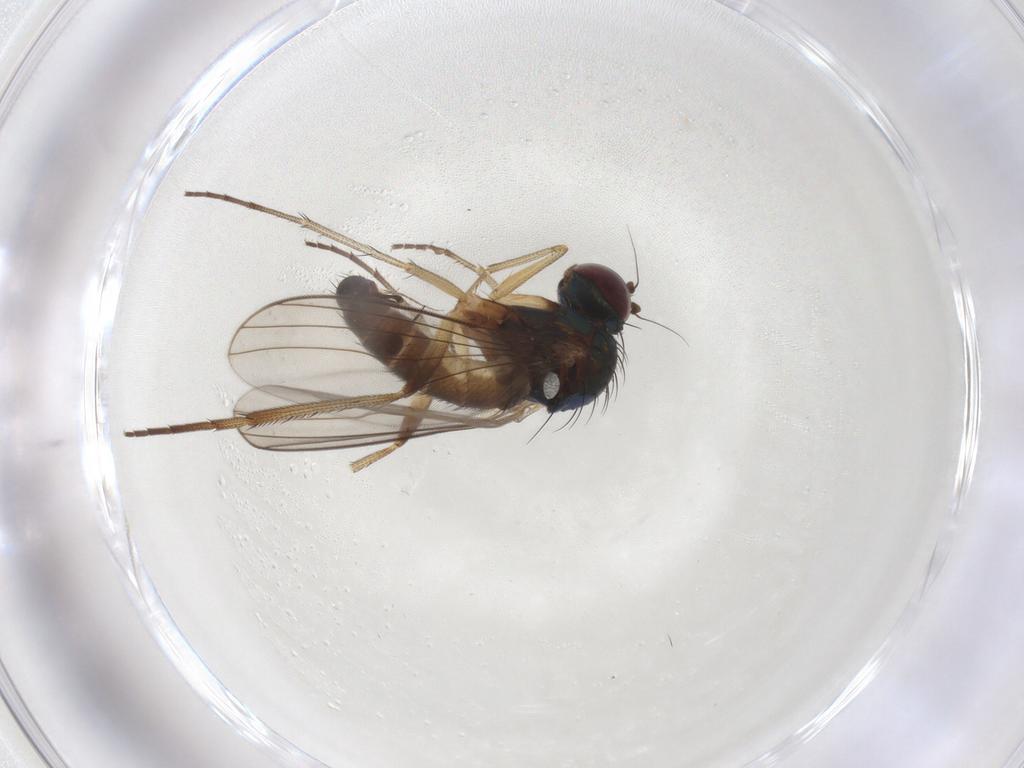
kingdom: Animalia
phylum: Arthropoda
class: Insecta
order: Diptera
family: Dolichopodidae
